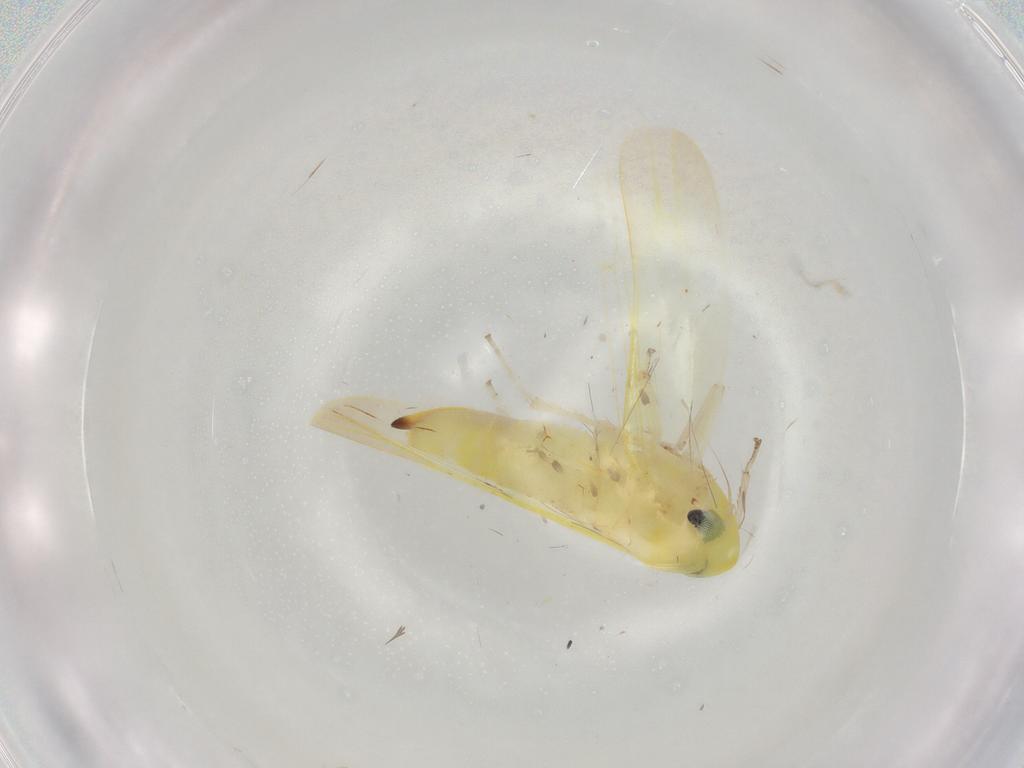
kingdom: Animalia
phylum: Arthropoda
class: Insecta
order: Hemiptera
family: Cicadellidae
